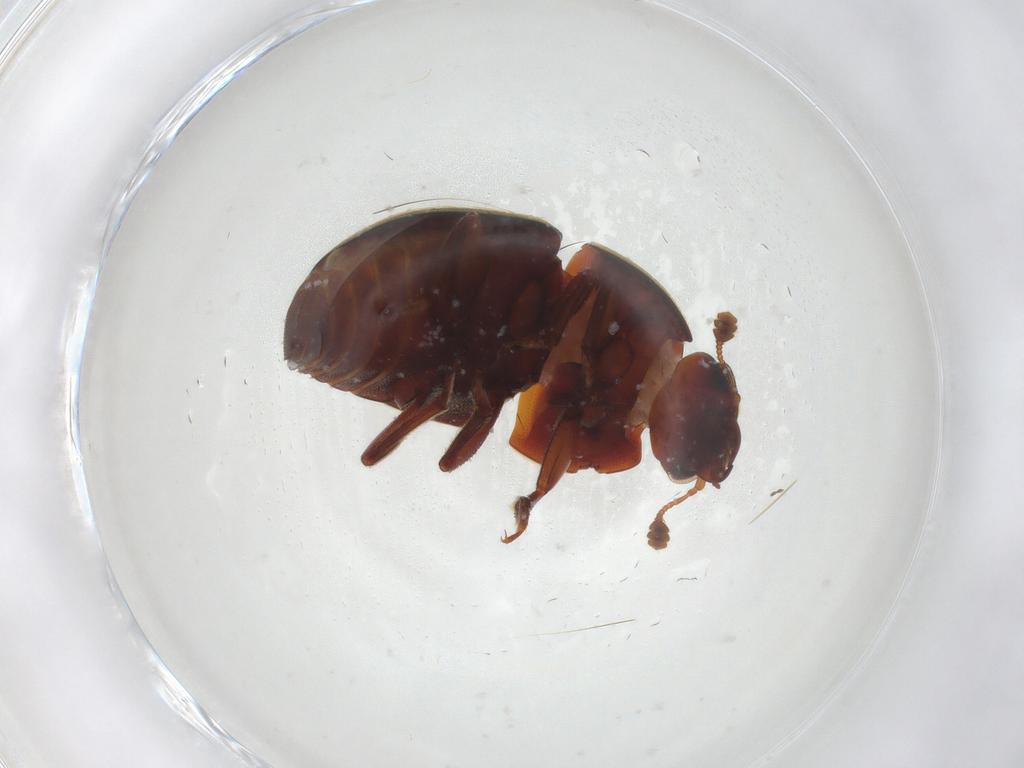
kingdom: Animalia
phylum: Arthropoda
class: Insecta
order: Coleoptera
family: Nitidulidae
